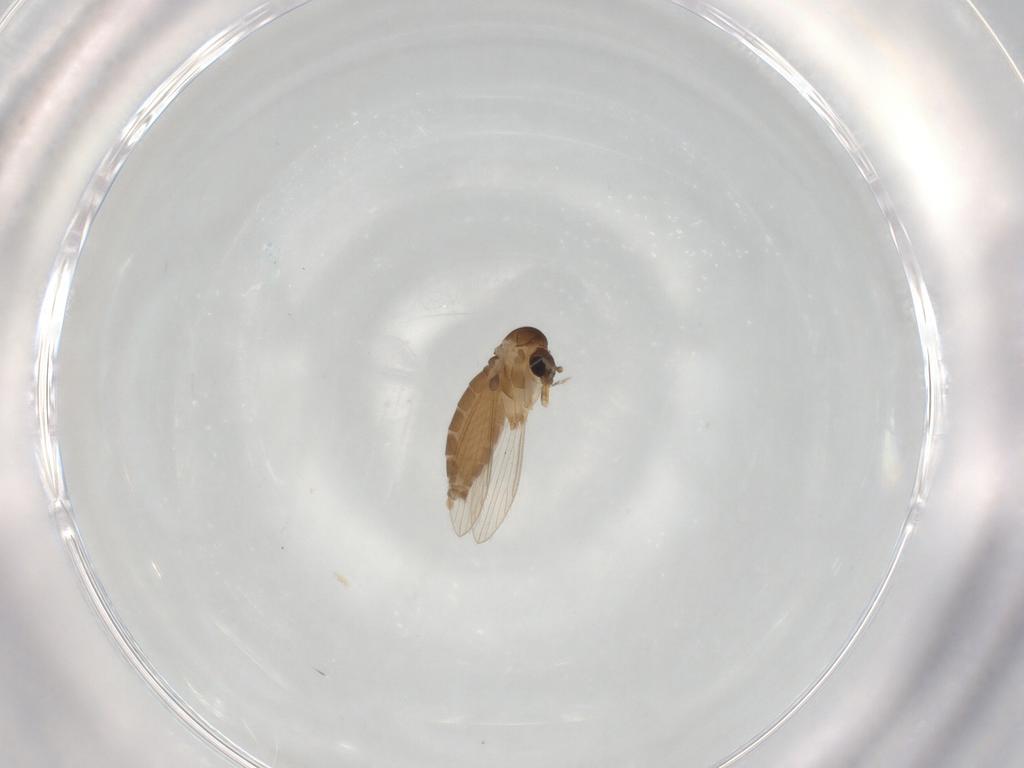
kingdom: Animalia
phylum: Arthropoda
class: Insecta
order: Diptera
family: Psychodidae
